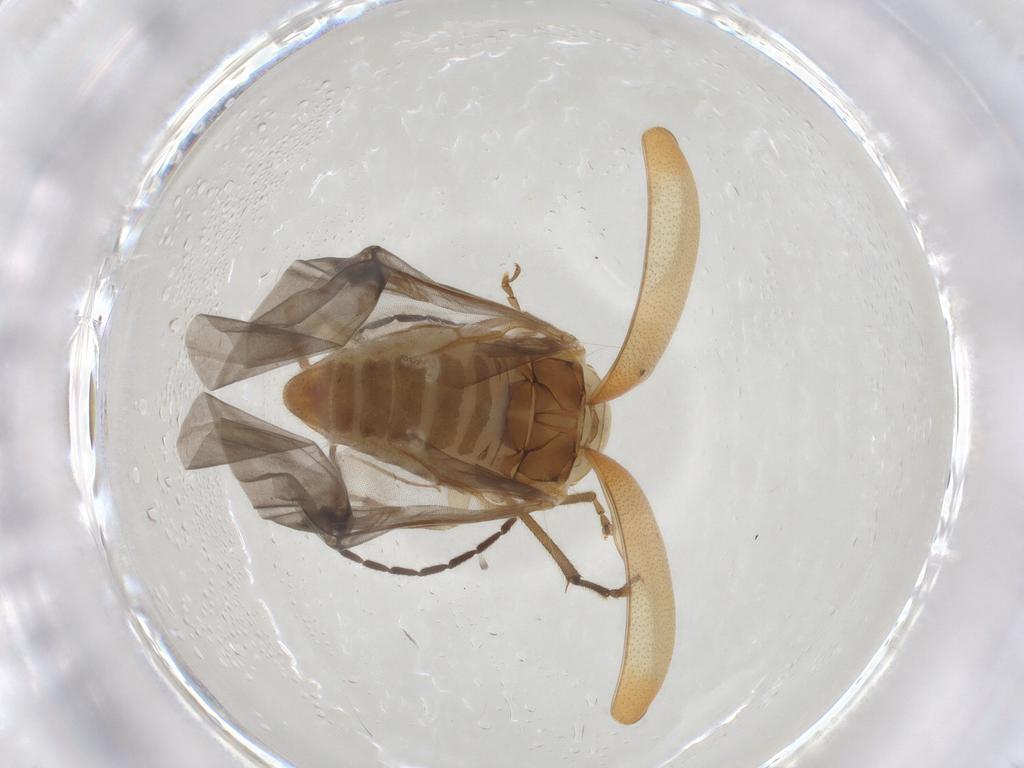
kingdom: Animalia
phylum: Arthropoda
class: Insecta
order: Coleoptera
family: Chrysomelidae
